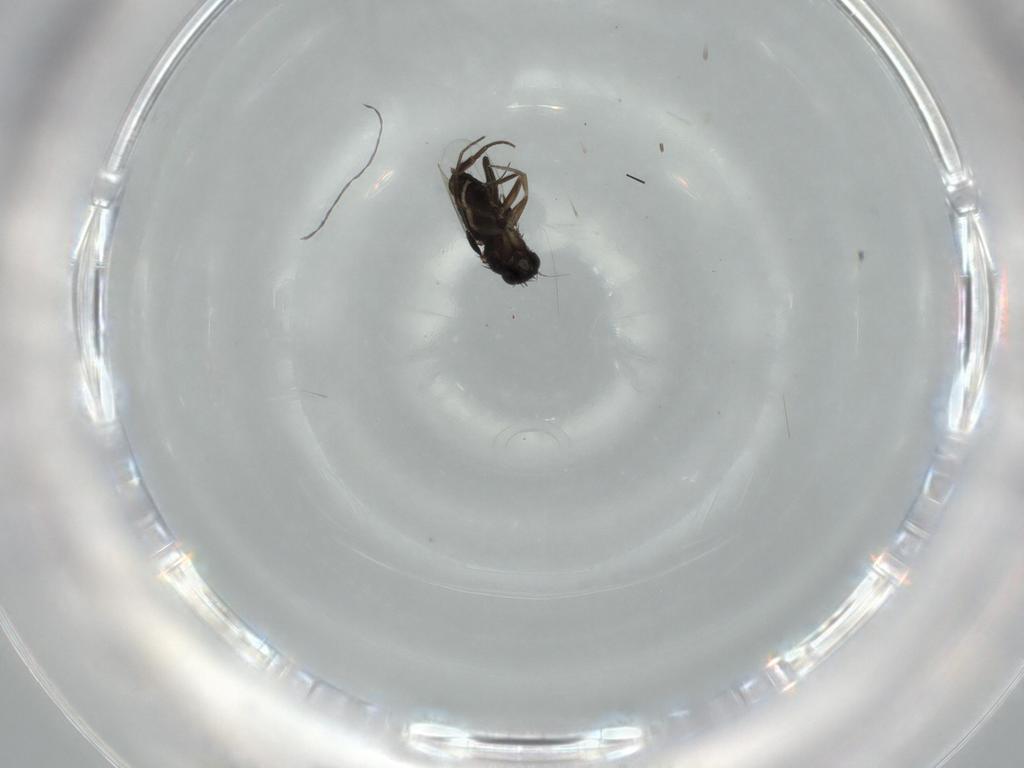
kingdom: Animalia
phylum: Arthropoda
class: Insecta
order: Diptera
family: Phoridae
